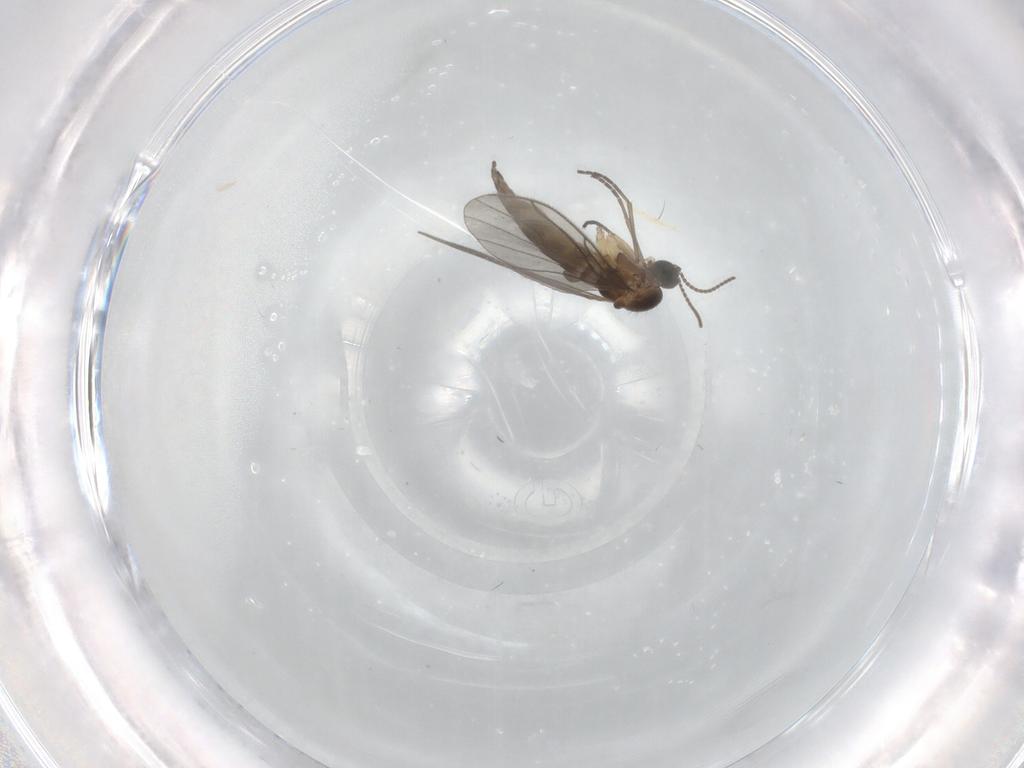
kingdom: Animalia
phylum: Arthropoda
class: Insecta
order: Diptera
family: Sciaridae
